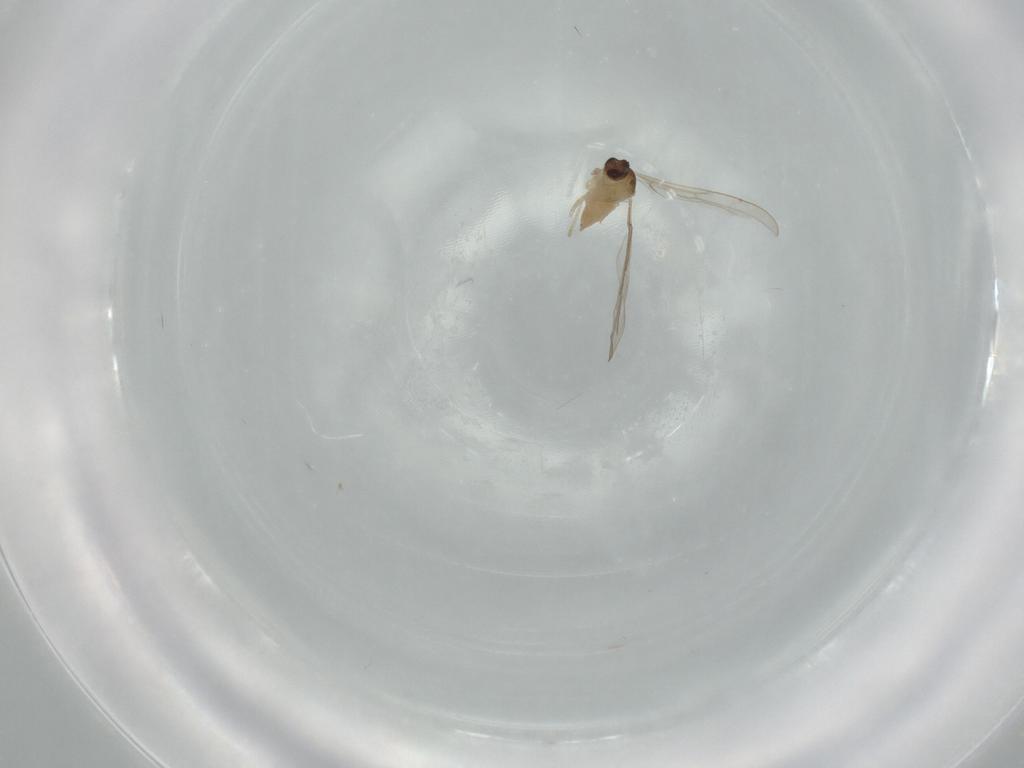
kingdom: Animalia
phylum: Arthropoda
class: Insecta
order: Diptera
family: Cecidomyiidae
